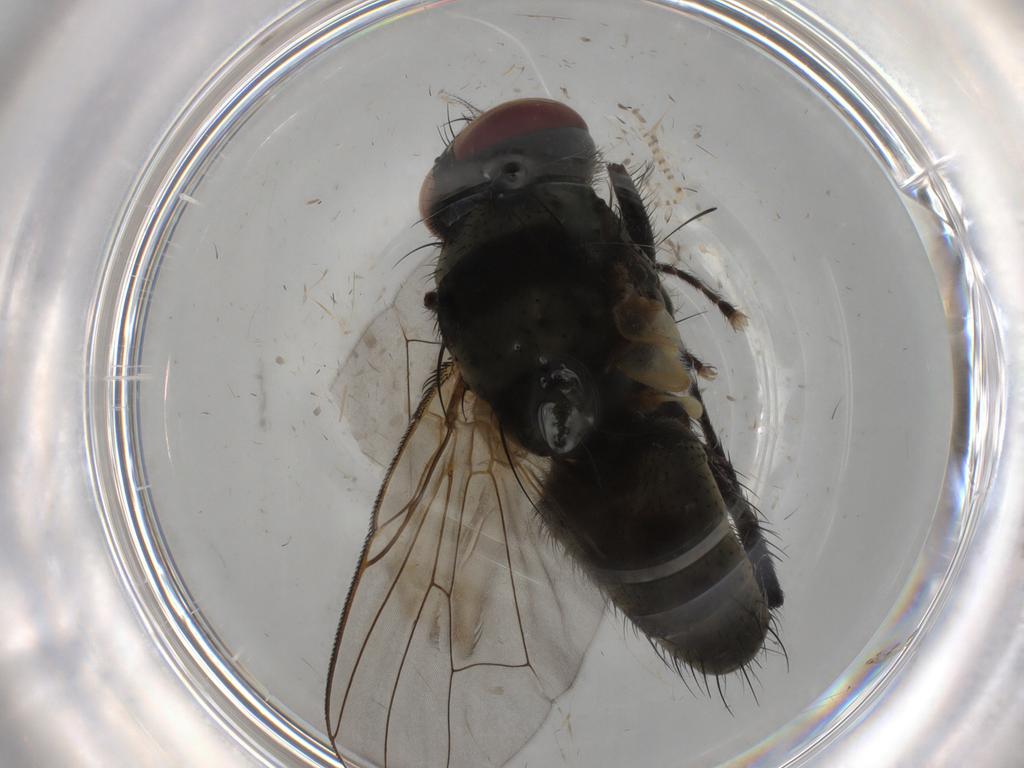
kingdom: Animalia
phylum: Arthropoda
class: Insecta
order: Diptera
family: Muscidae
